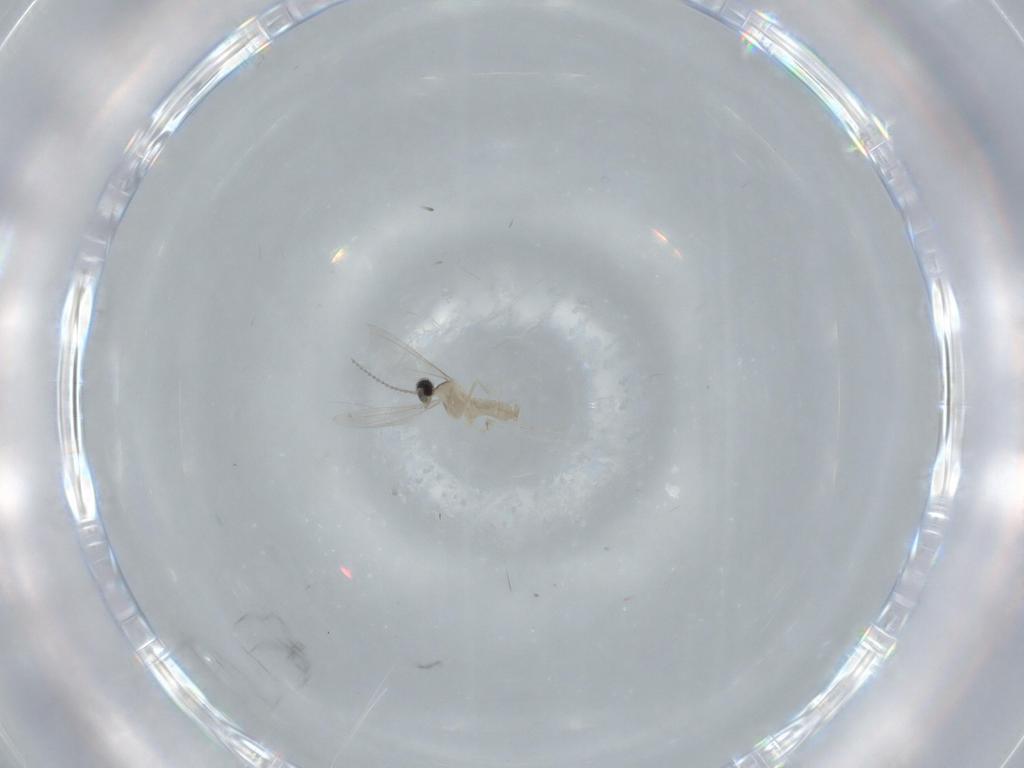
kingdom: Animalia
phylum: Arthropoda
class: Insecta
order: Diptera
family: Cecidomyiidae
